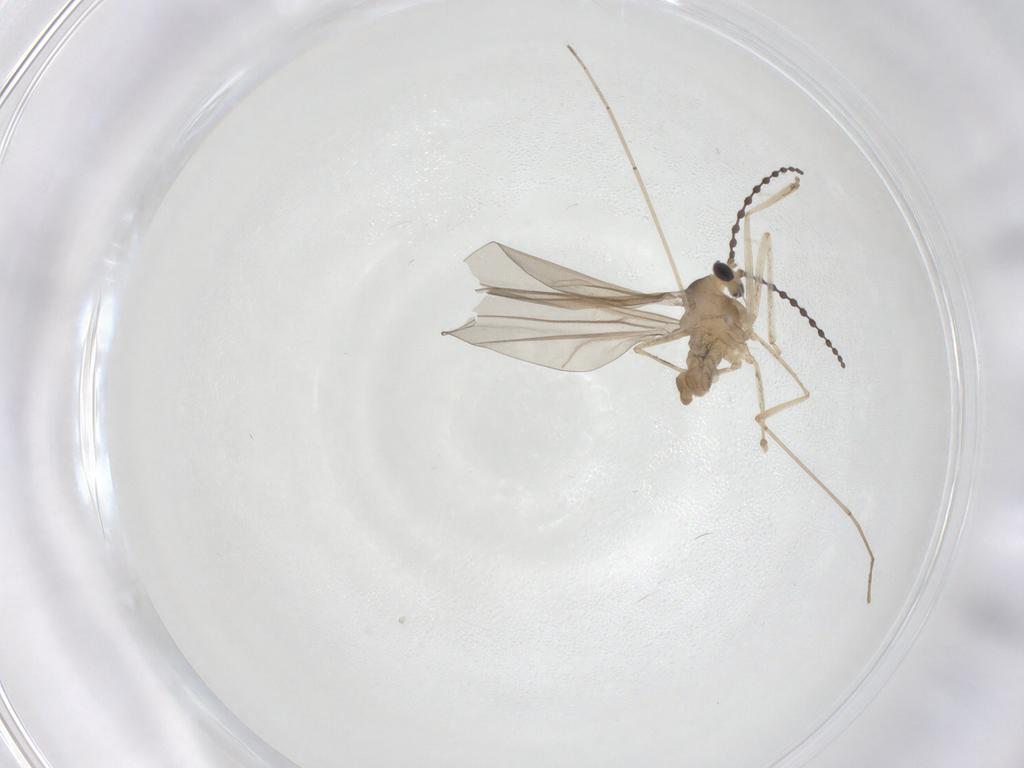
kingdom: Animalia
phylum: Arthropoda
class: Insecta
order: Diptera
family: Cecidomyiidae
